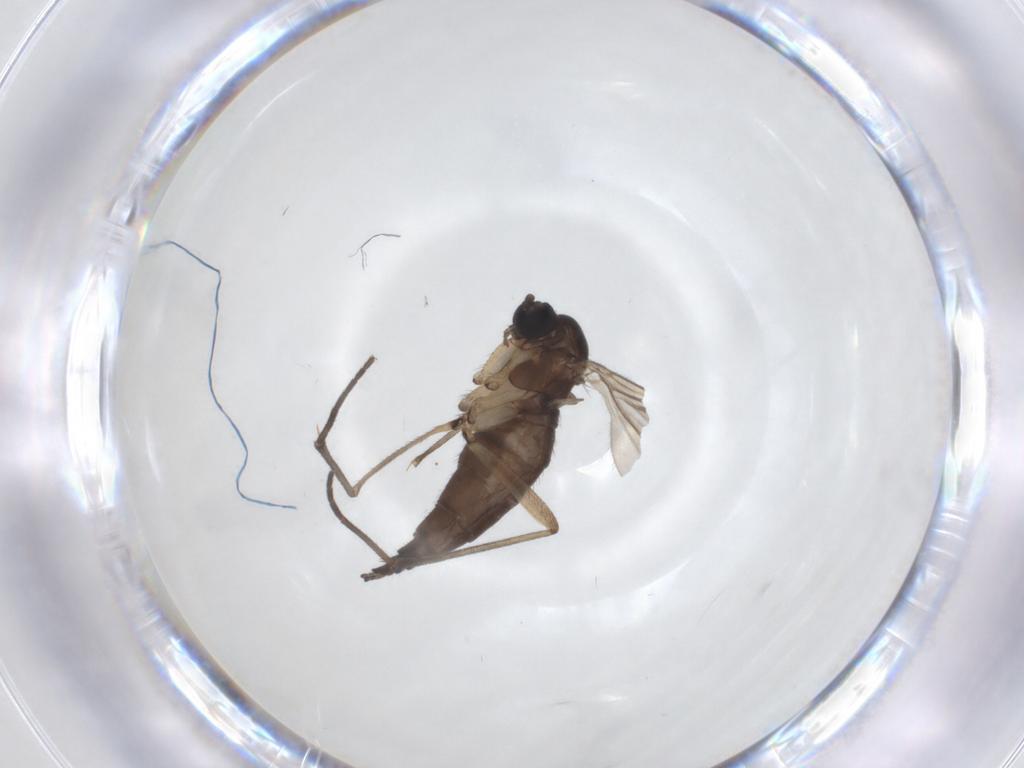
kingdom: Animalia
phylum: Arthropoda
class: Insecta
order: Diptera
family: Sciaridae
